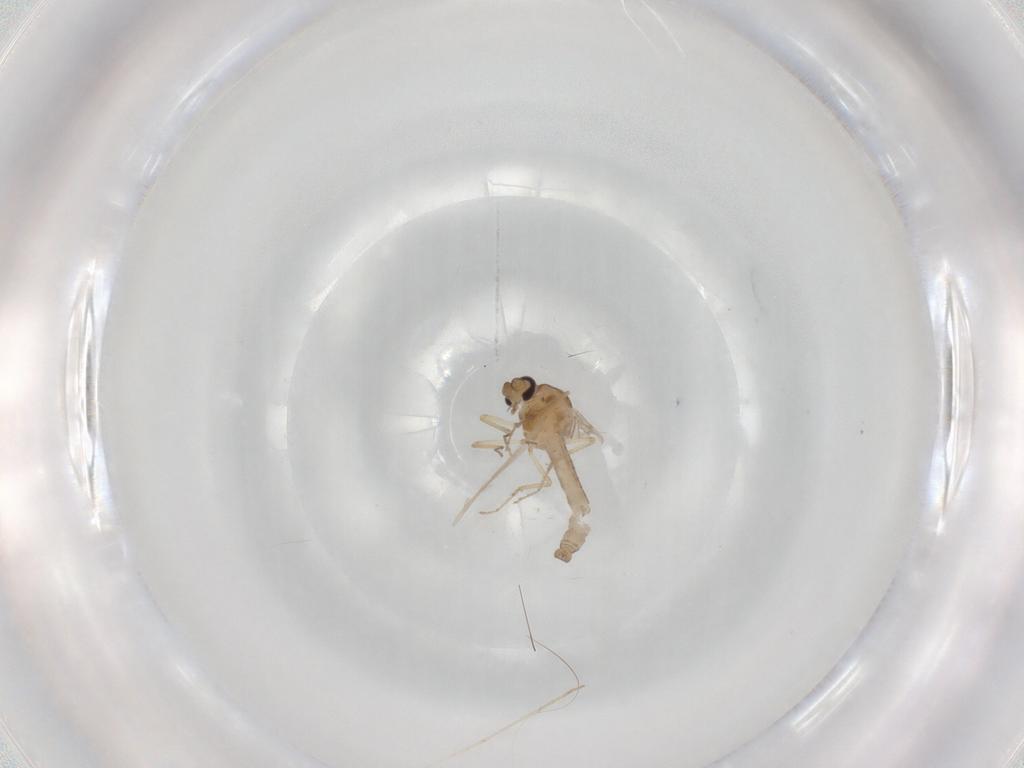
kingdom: Animalia
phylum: Arthropoda
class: Insecta
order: Diptera
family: Ceratopogonidae
